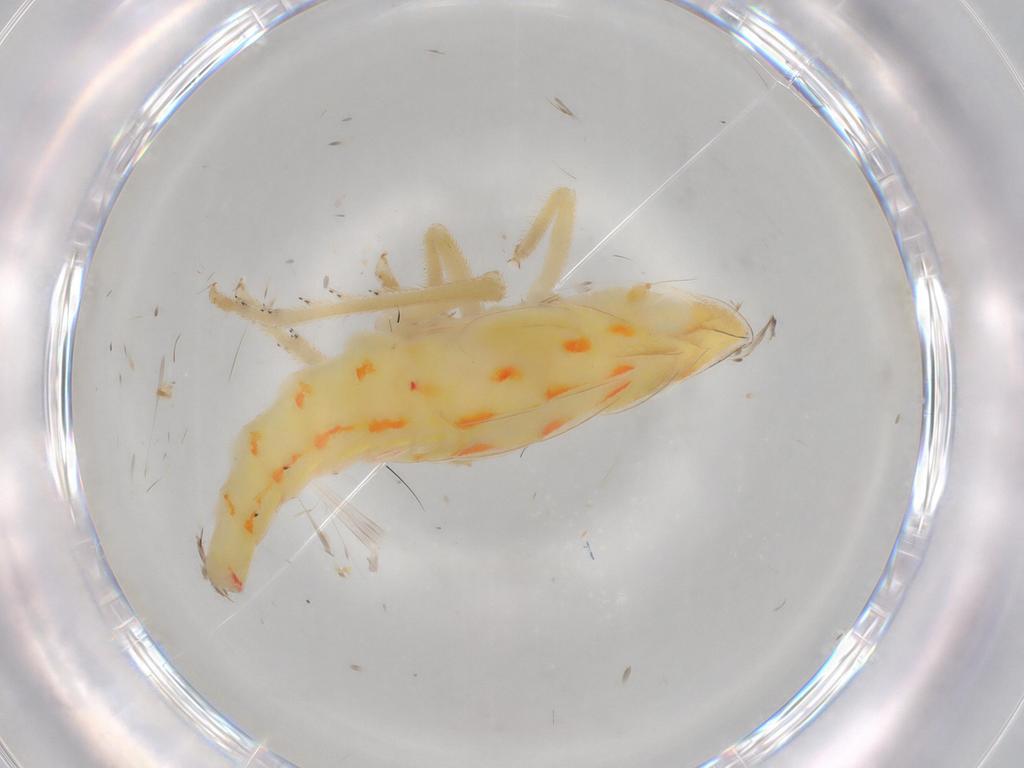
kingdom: Animalia
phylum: Arthropoda
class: Insecta
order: Hemiptera
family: Tropiduchidae
